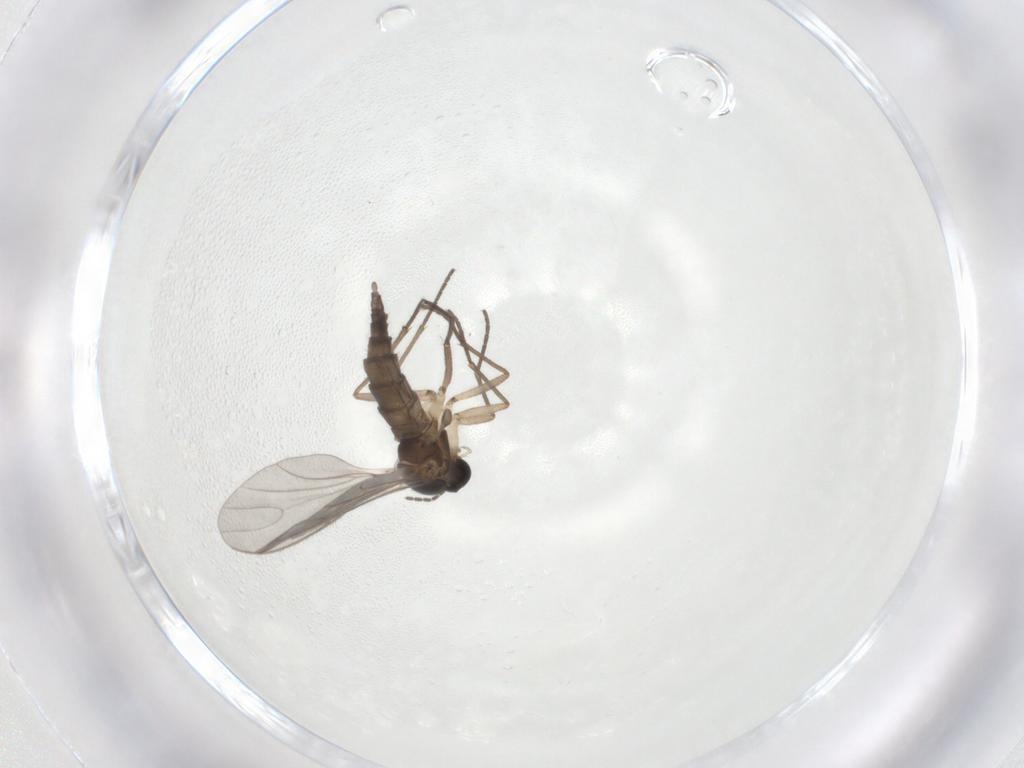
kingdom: Animalia
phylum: Arthropoda
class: Insecta
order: Diptera
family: Sciaridae
